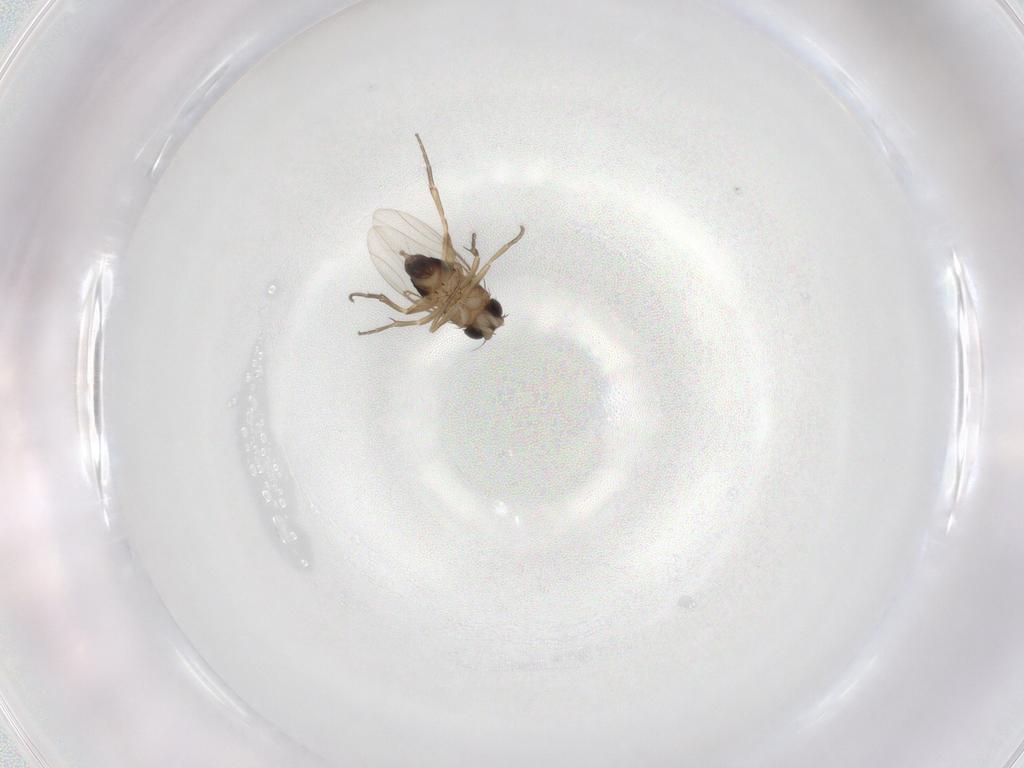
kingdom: Animalia
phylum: Arthropoda
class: Insecta
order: Diptera
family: Phoridae
